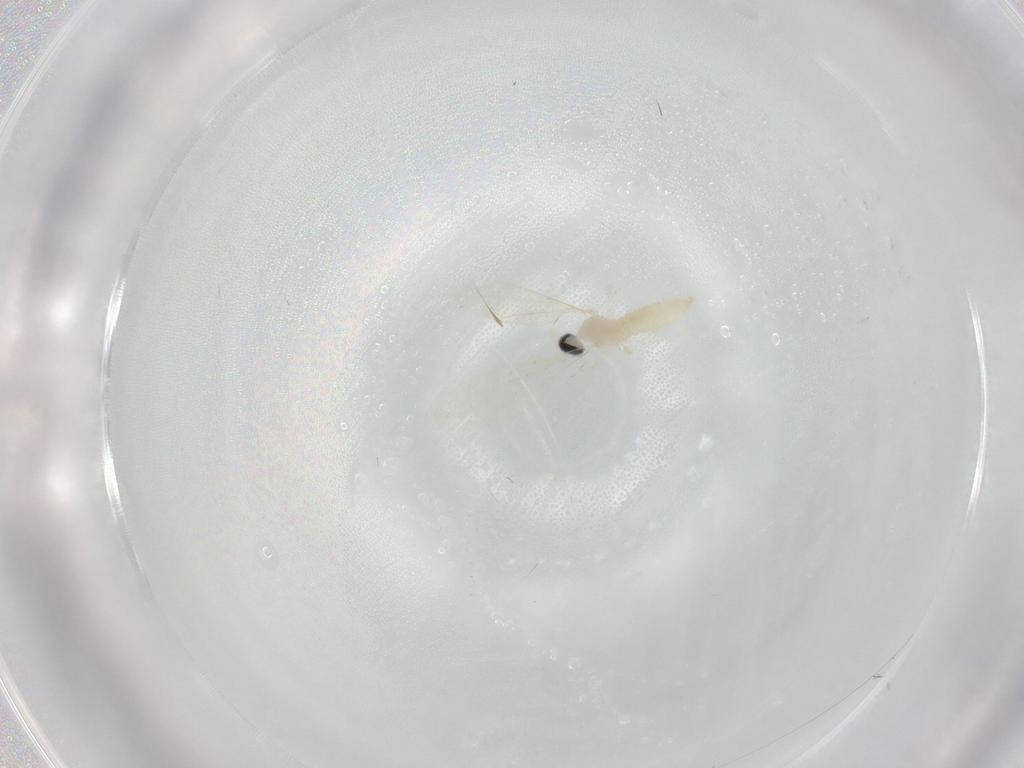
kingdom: Animalia
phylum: Arthropoda
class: Insecta
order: Diptera
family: Cecidomyiidae
